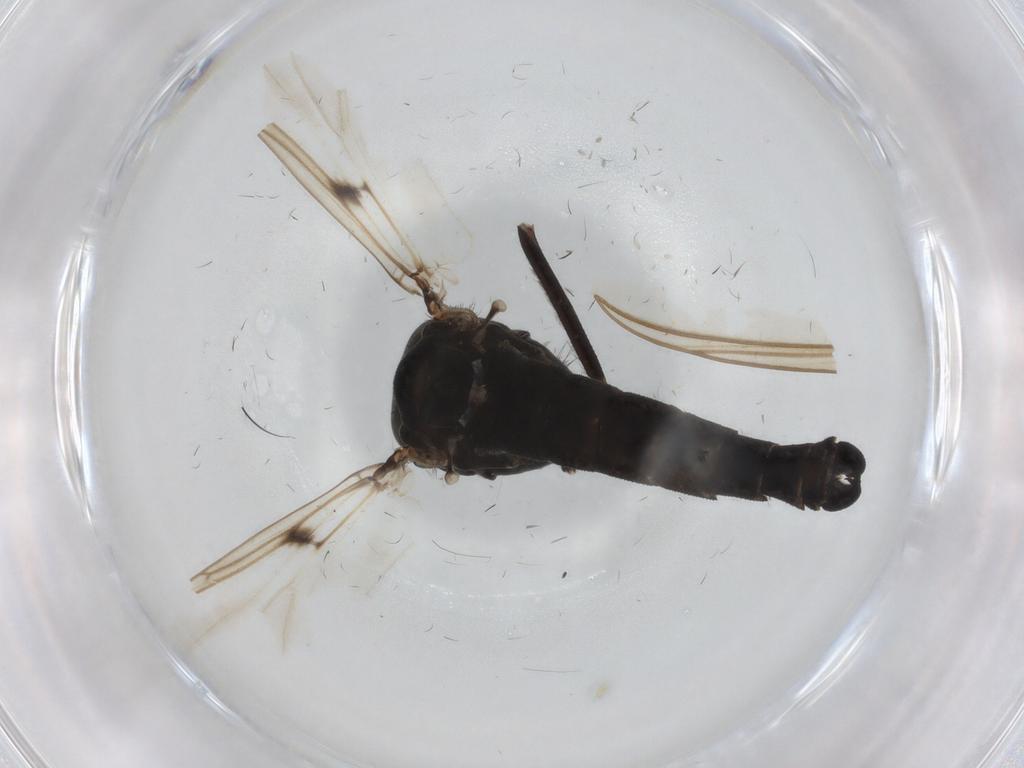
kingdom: Animalia
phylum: Arthropoda
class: Insecta
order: Diptera
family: Chironomidae
